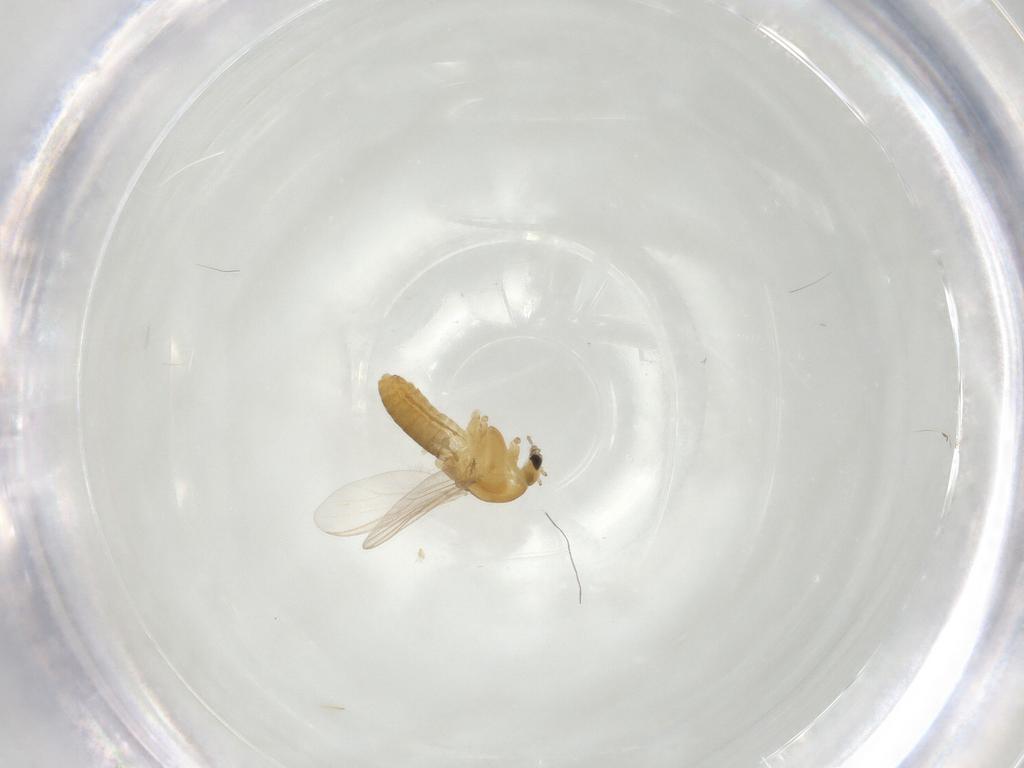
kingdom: Animalia
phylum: Arthropoda
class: Insecta
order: Diptera
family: Chironomidae
